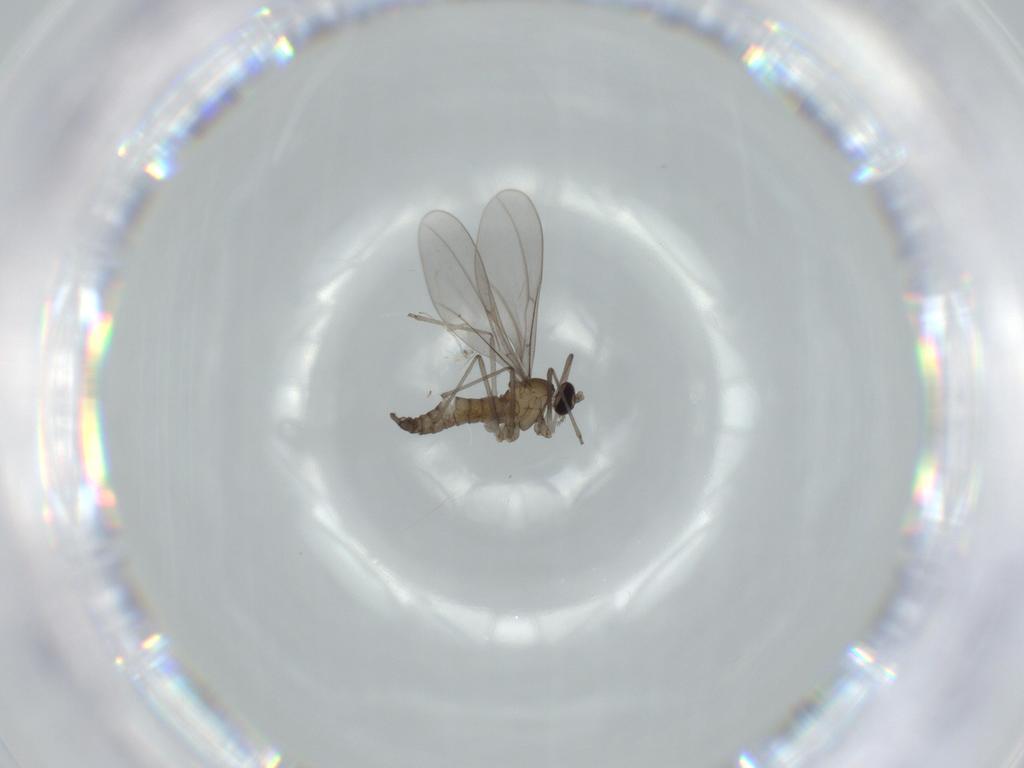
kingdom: Animalia
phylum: Arthropoda
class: Insecta
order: Diptera
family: Cecidomyiidae
